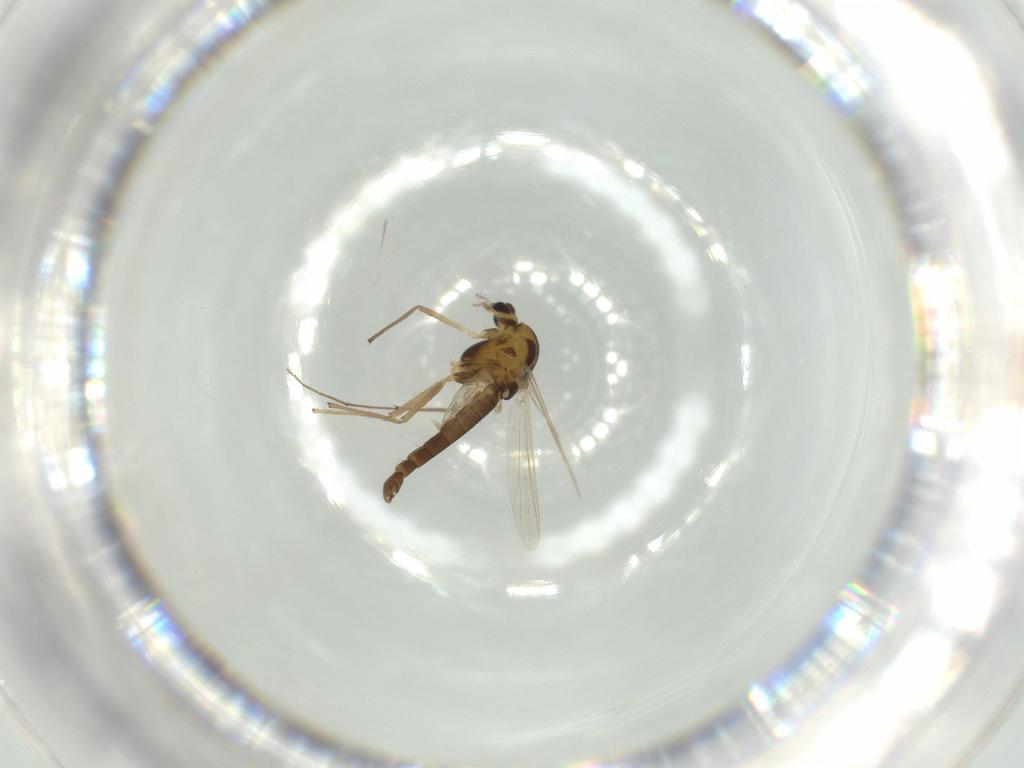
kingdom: Animalia
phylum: Arthropoda
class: Insecta
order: Diptera
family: Chironomidae
